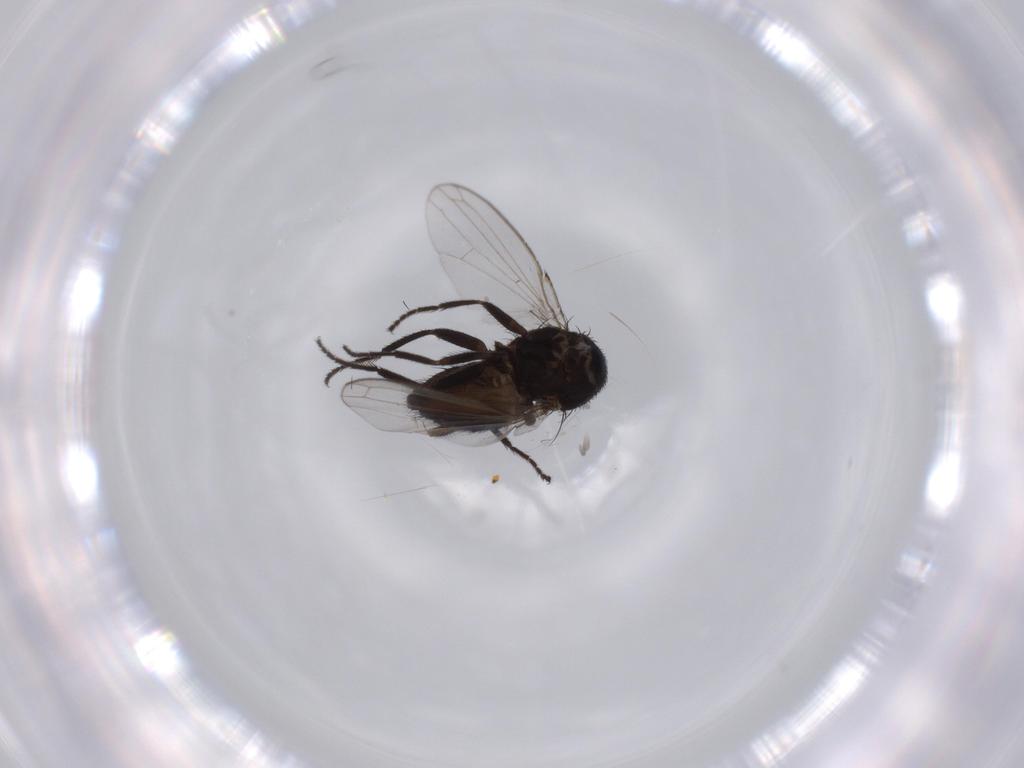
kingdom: Animalia
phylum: Arthropoda
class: Insecta
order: Diptera
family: Milichiidae
